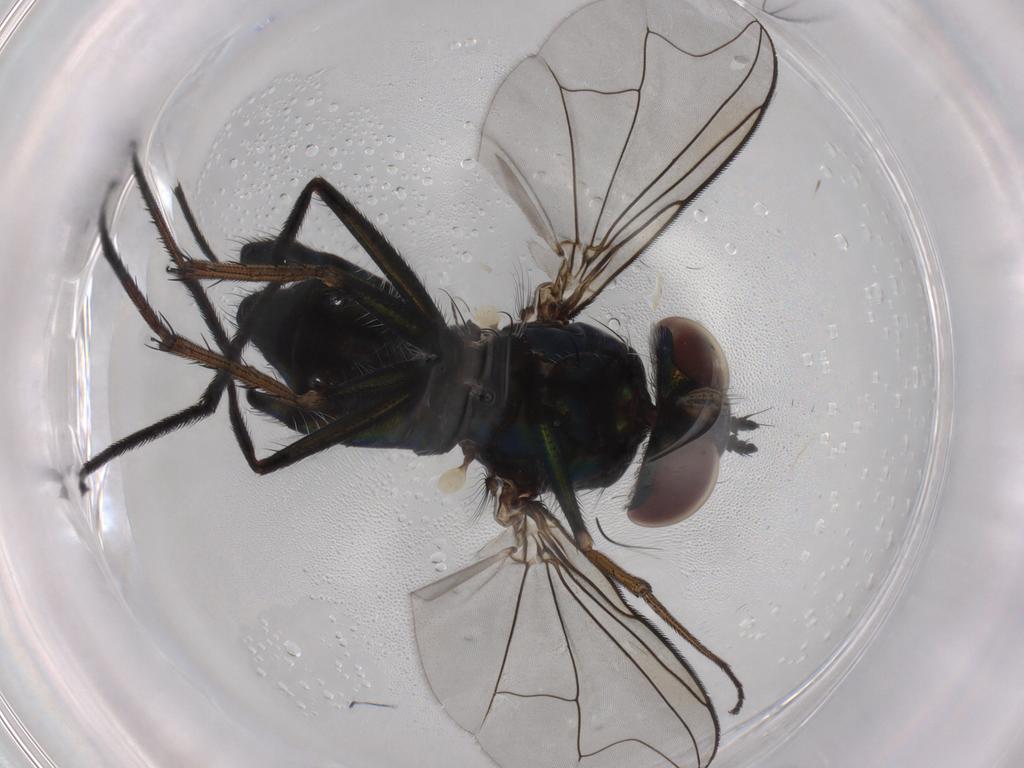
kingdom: Animalia
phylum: Arthropoda
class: Insecta
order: Diptera
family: Dolichopodidae
